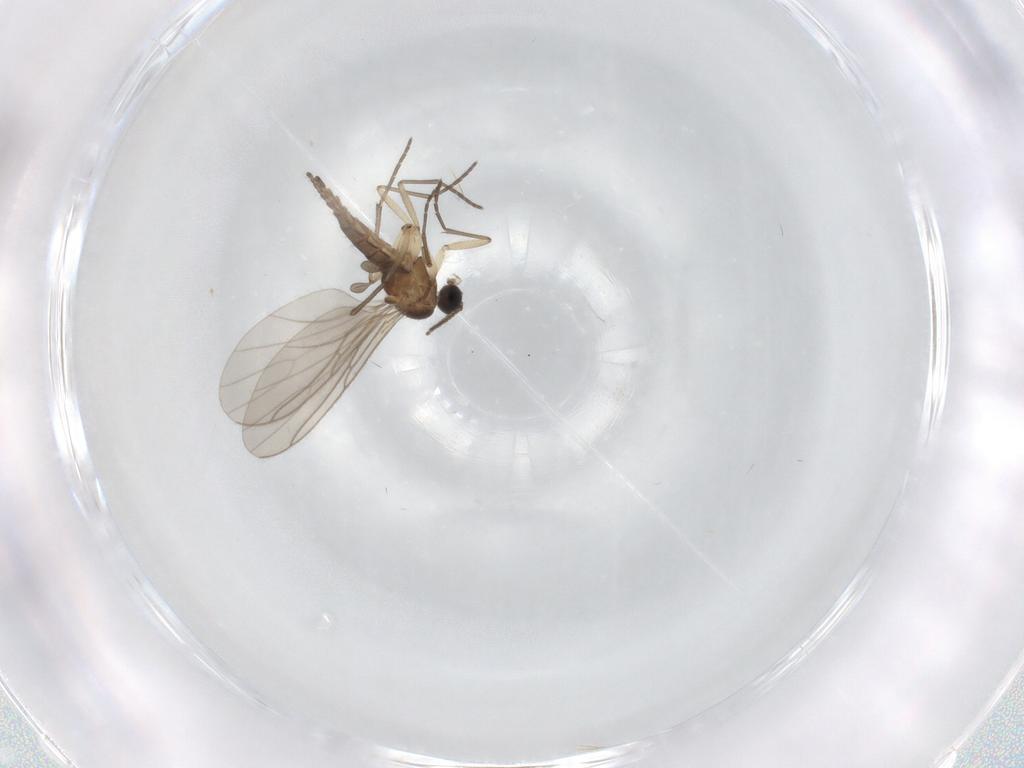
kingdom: Animalia
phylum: Arthropoda
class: Insecta
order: Diptera
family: Sciaridae
